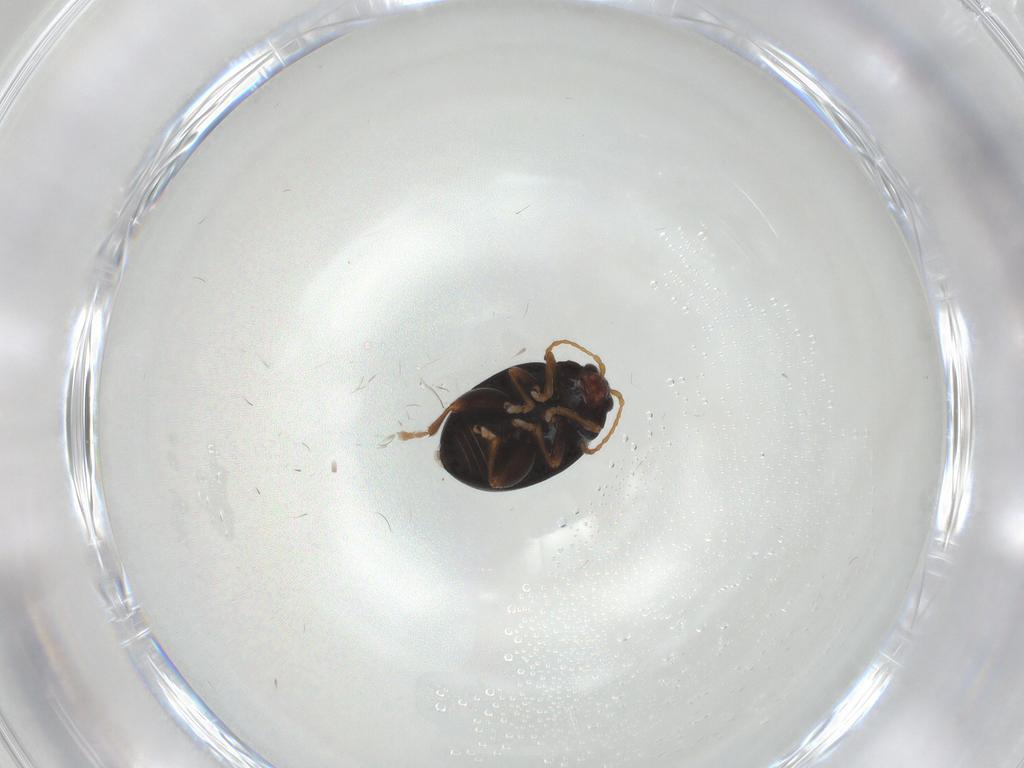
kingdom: Animalia
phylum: Arthropoda
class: Insecta
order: Coleoptera
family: Chrysomelidae
